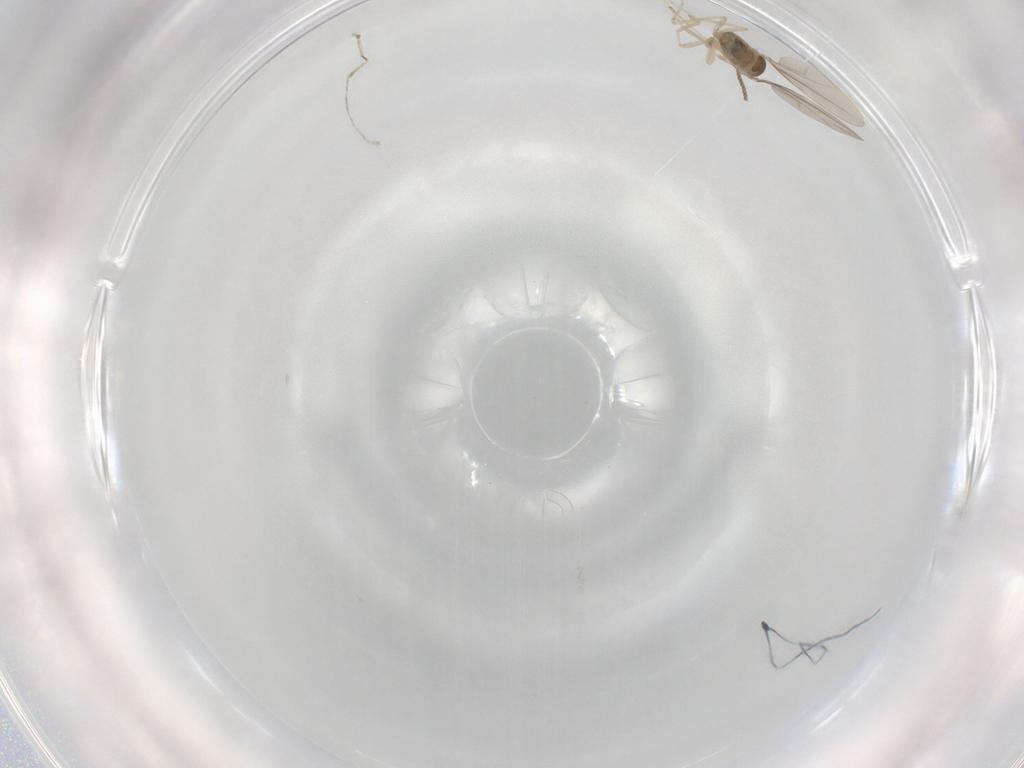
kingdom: Animalia
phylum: Arthropoda
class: Insecta
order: Diptera
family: Cecidomyiidae
